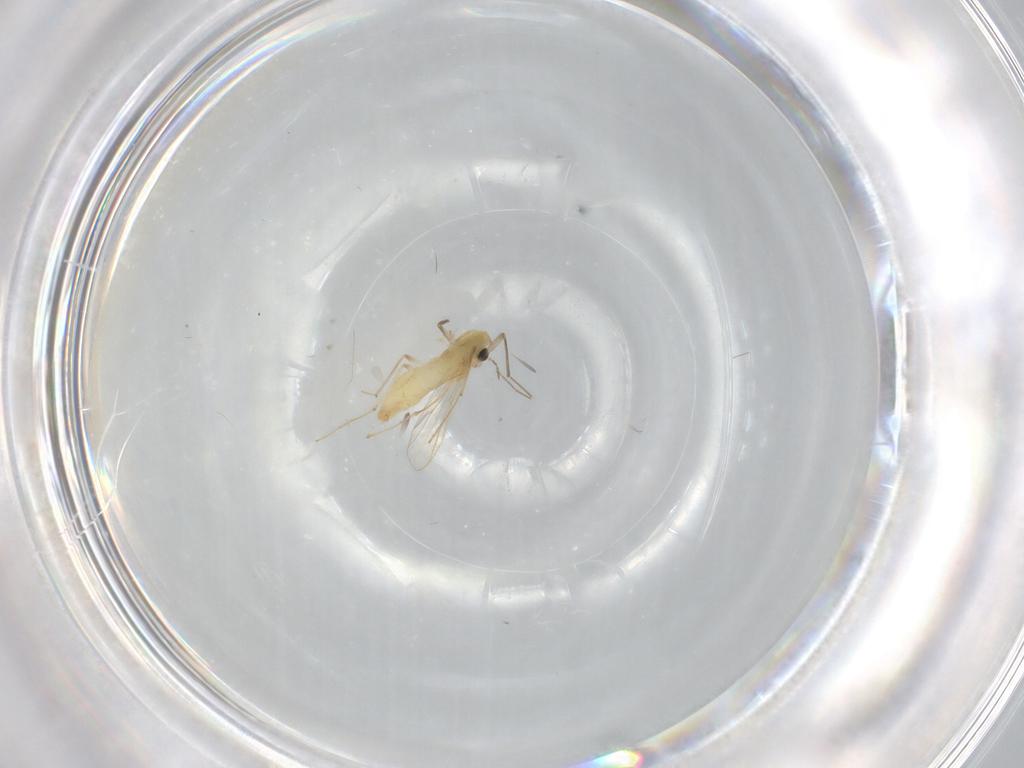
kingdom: Animalia
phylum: Arthropoda
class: Insecta
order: Diptera
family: Chironomidae
